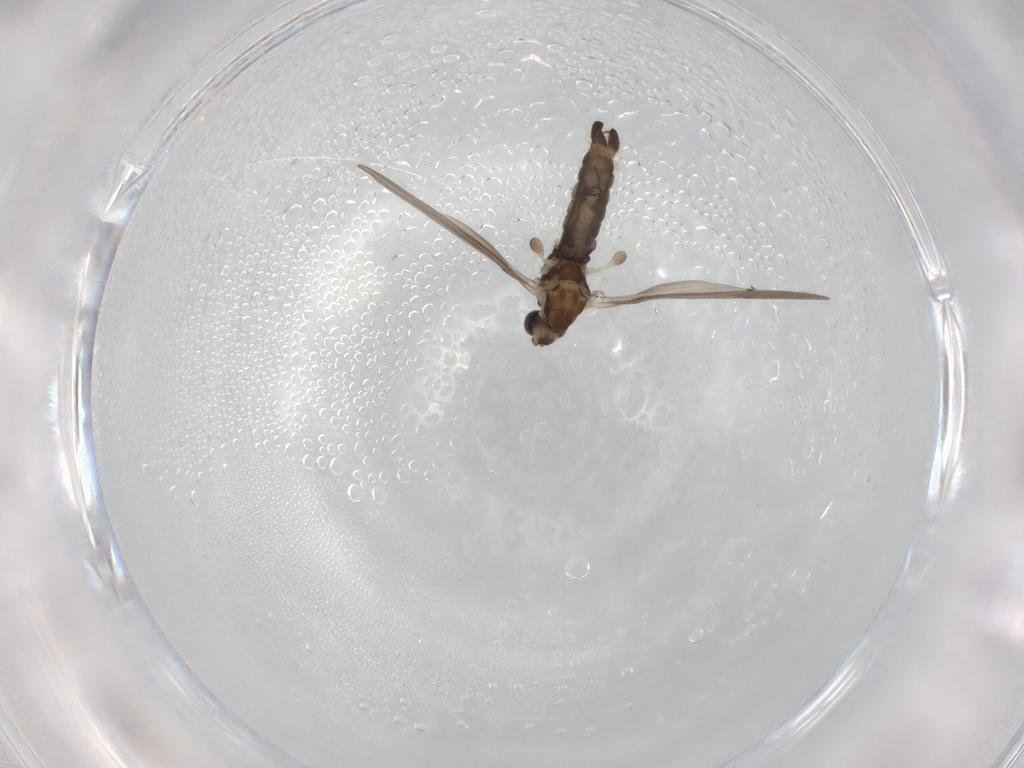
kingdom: Animalia
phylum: Arthropoda
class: Insecta
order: Diptera
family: Limoniidae
